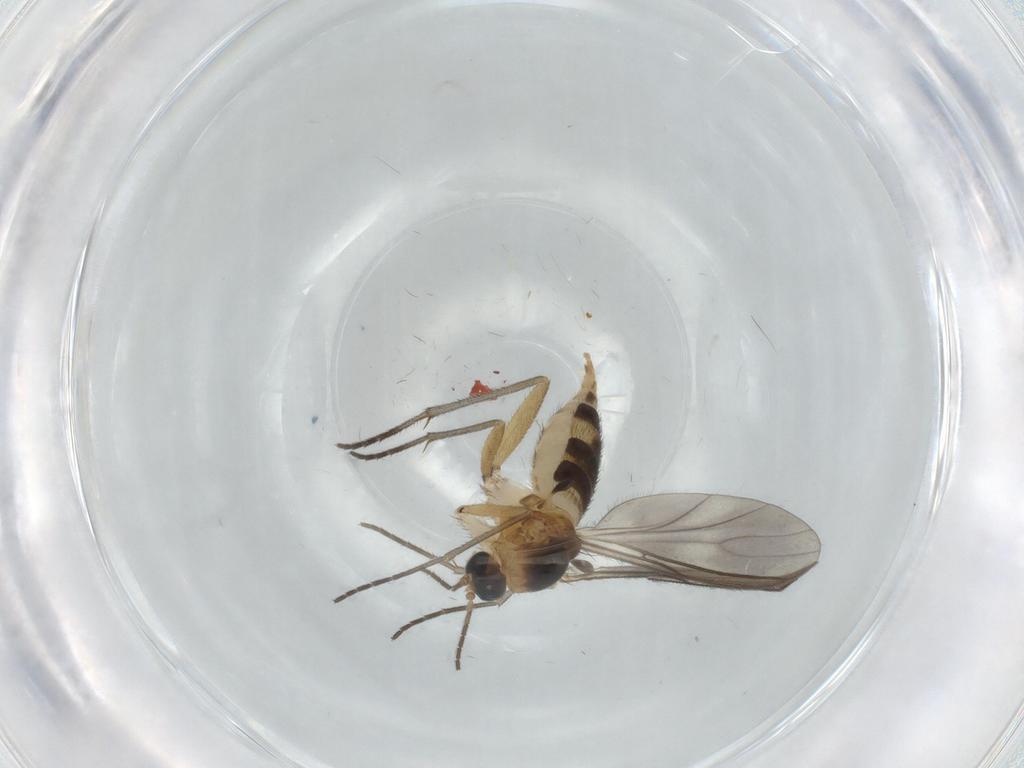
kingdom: Animalia
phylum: Arthropoda
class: Insecta
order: Diptera
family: Sciaridae
